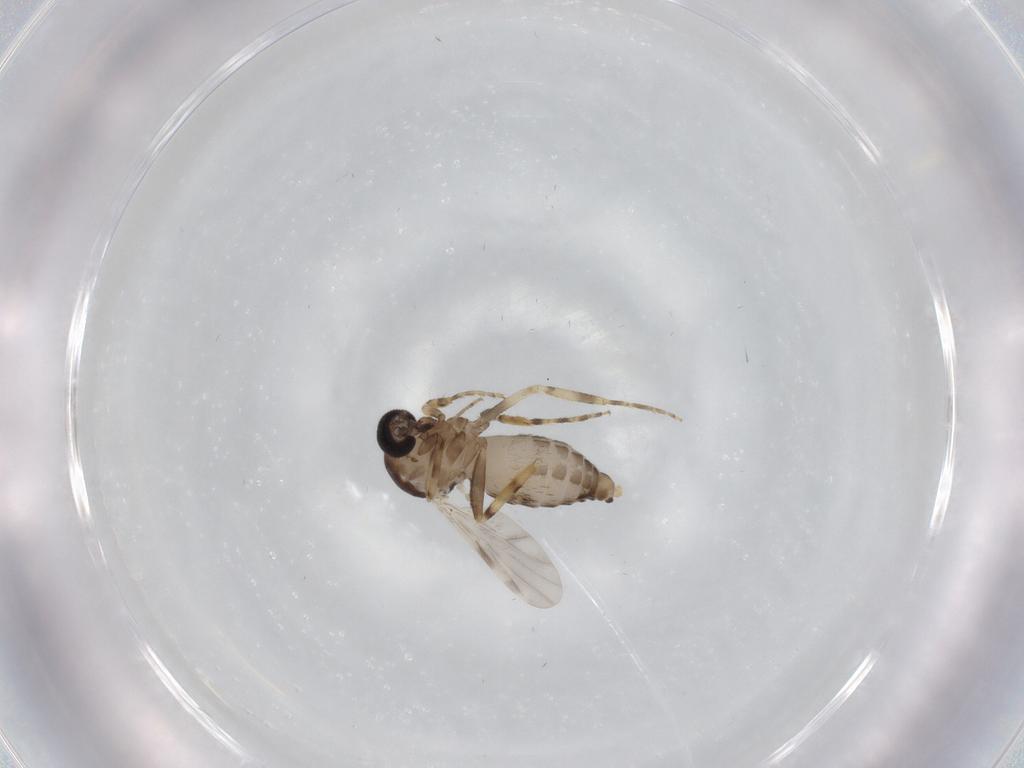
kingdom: Animalia
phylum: Arthropoda
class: Insecta
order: Diptera
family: Ceratopogonidae
